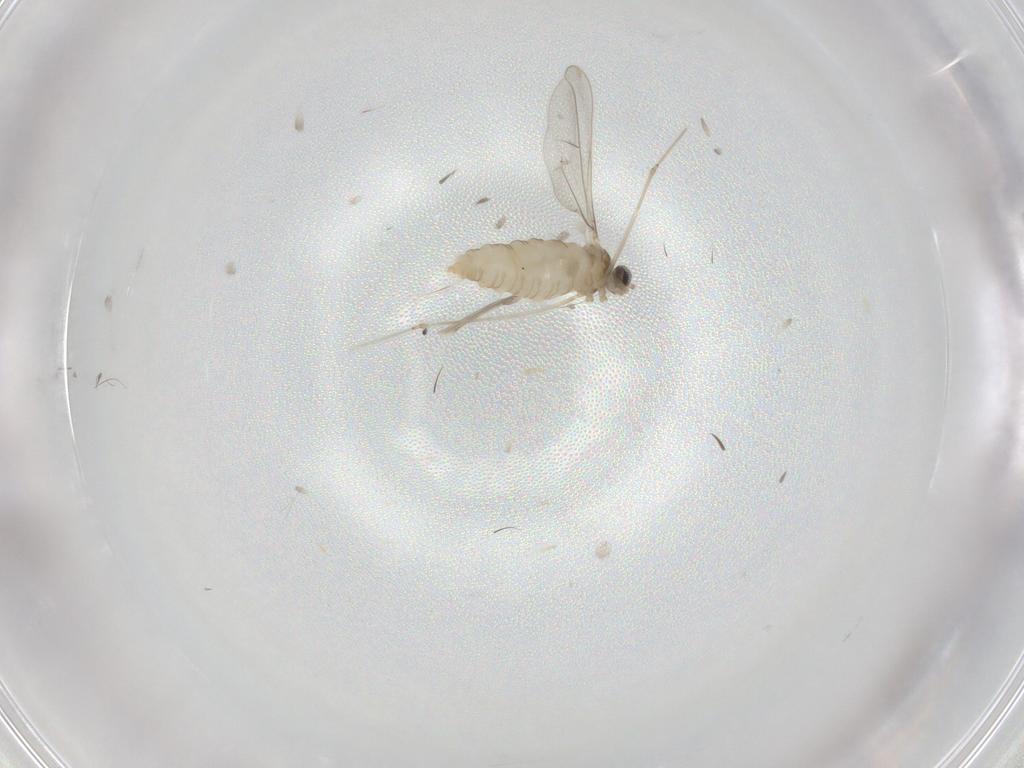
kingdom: Animalia
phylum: Arthropoda
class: Insecta
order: Diptera
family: Cecidomyiidae
